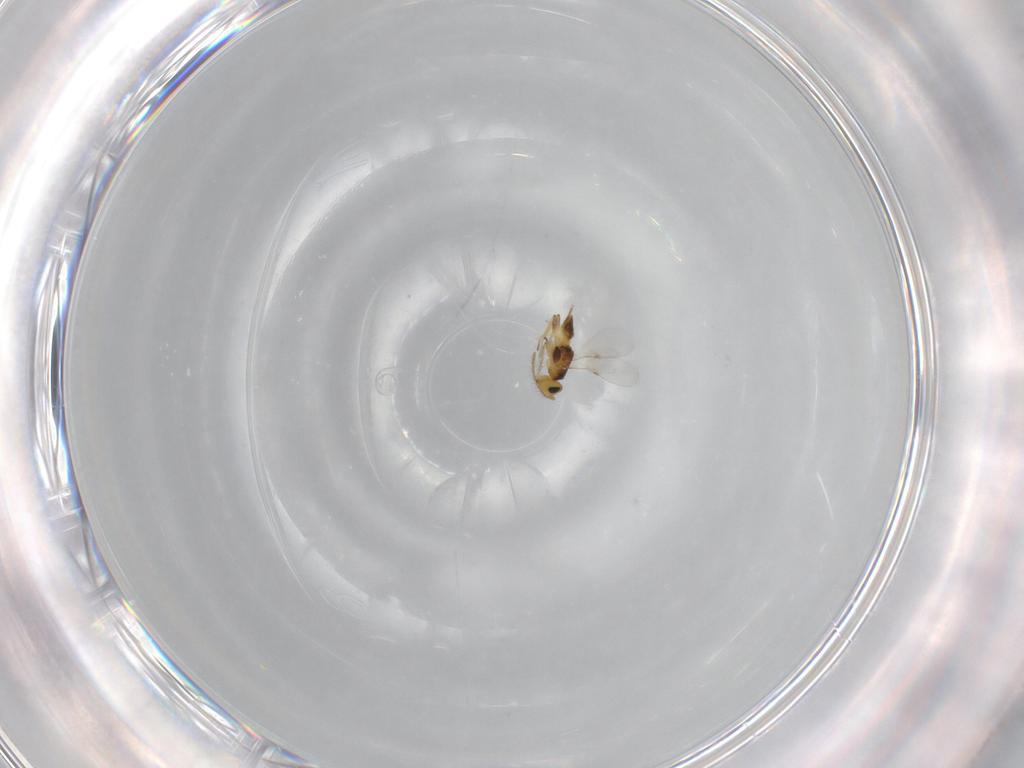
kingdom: Animalia
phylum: Arthropoda
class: Insecta
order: Hymenoptera
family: Encyrtidae
